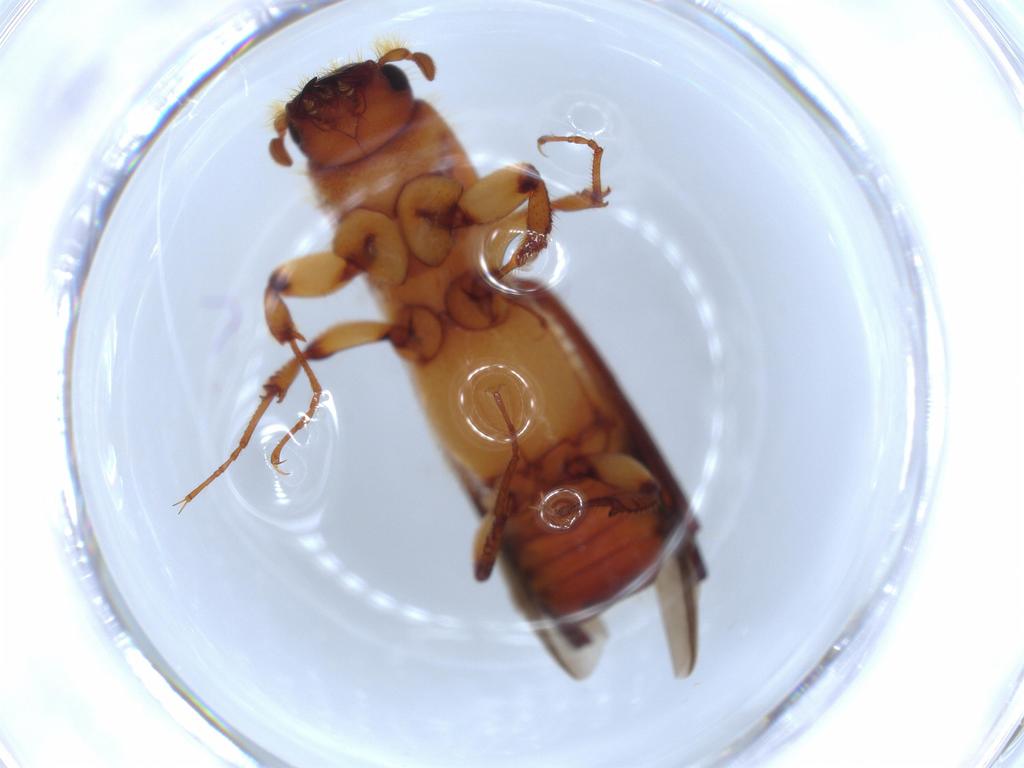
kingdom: Animalia
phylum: Arthropoda
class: Insecta
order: Coleoptera
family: Curculionidae
